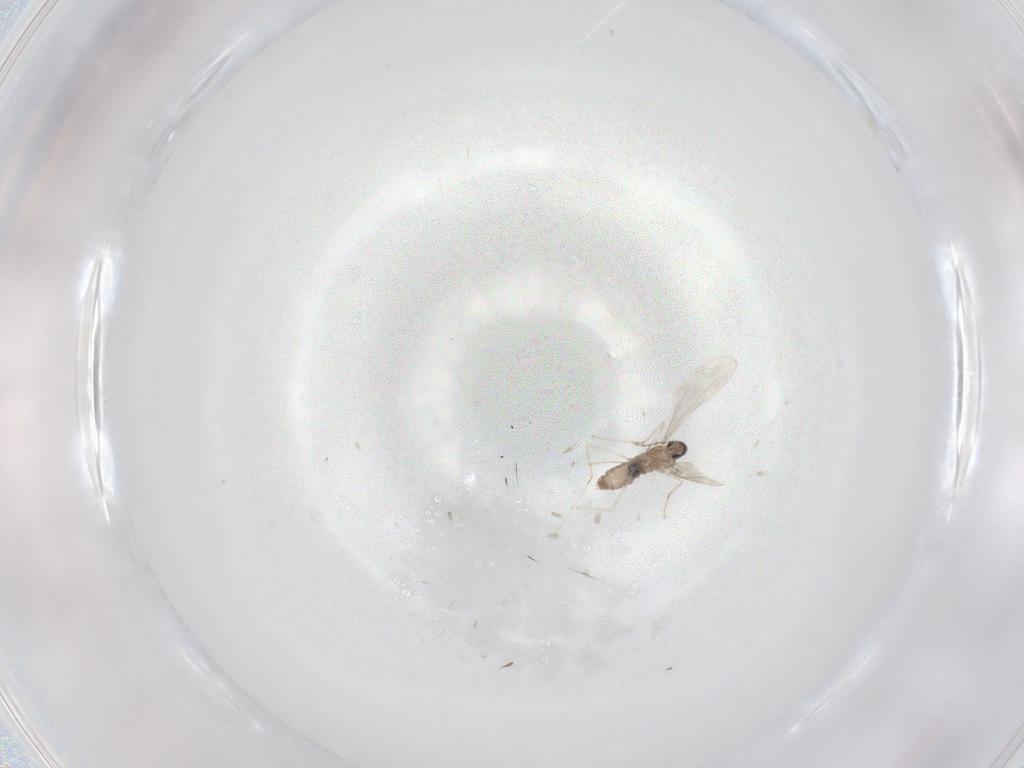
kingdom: Animalia
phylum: Arthropoda
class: Insecta
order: Diptera
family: Cecidomyiidae
